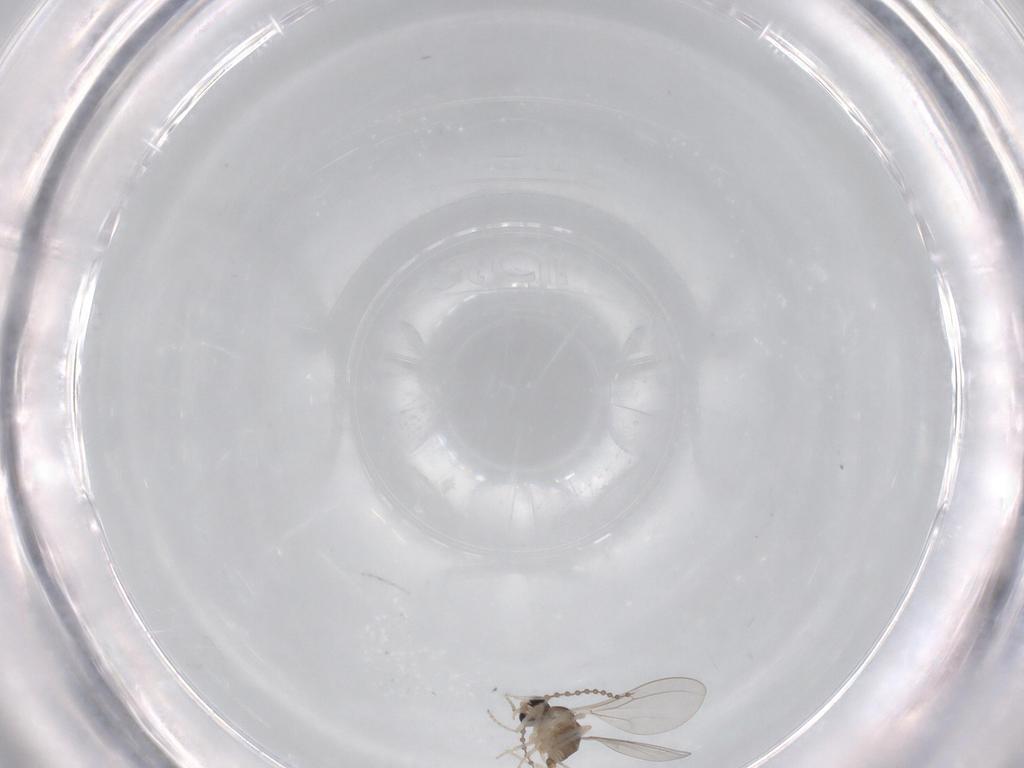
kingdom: Animalia
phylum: Arthropoda
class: Insecta
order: Diptera
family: Cecidomyiidae
